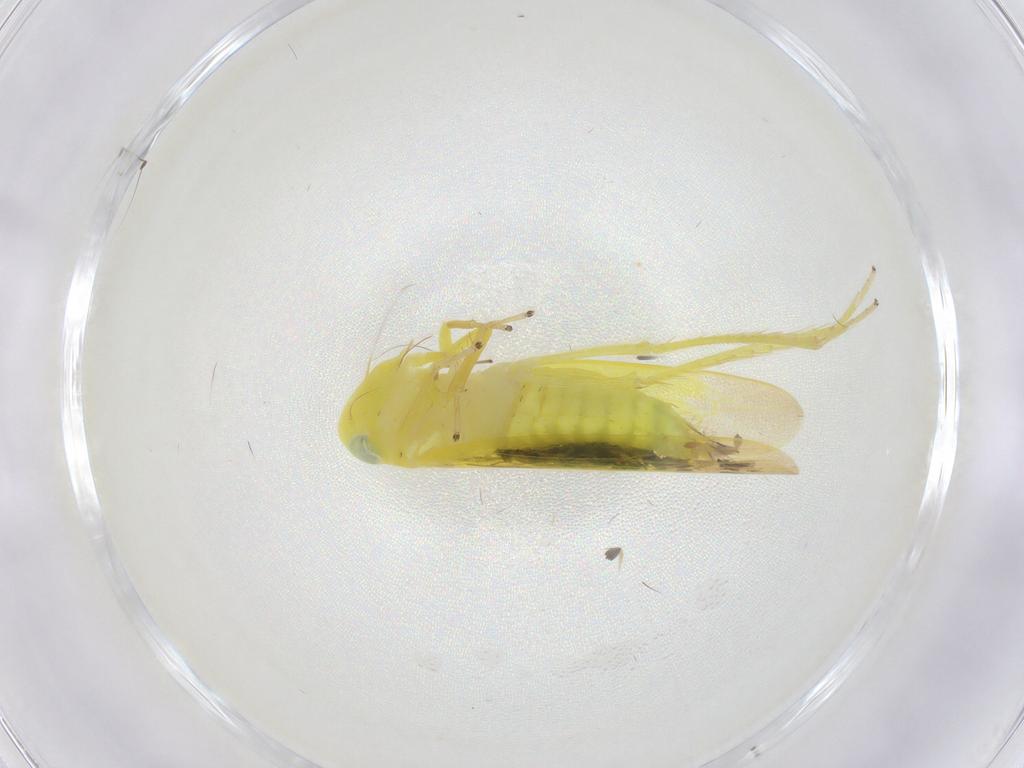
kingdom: Animalia
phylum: Arthropoda
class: Insecta
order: Hemiptera
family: Cicadellidae
